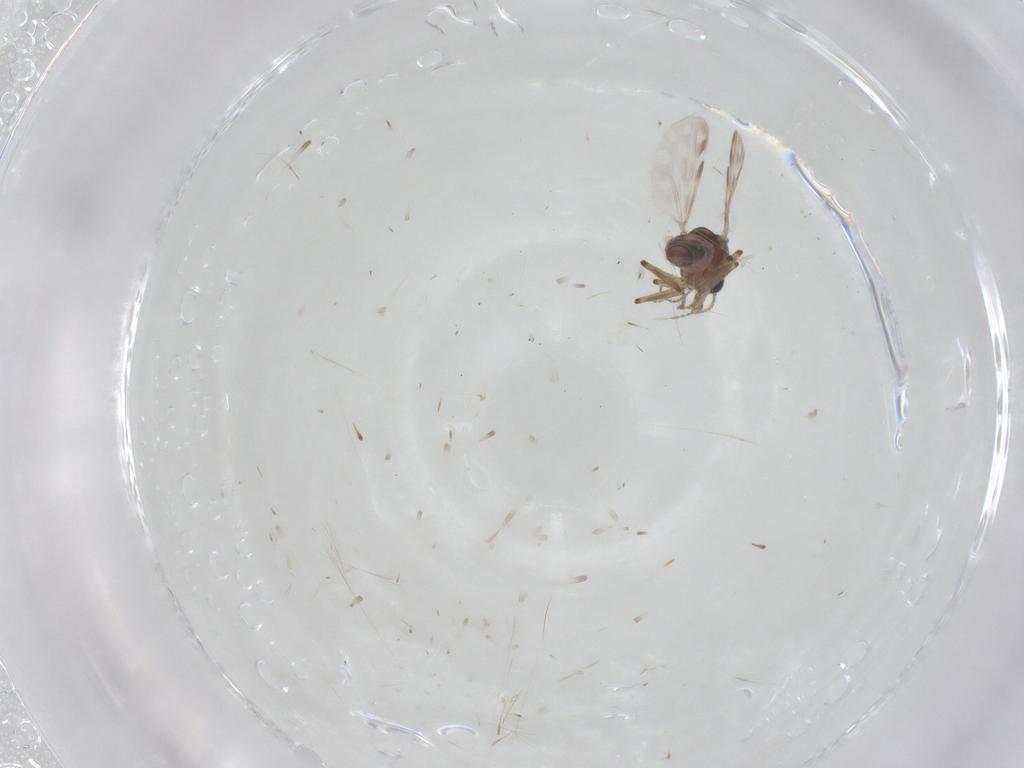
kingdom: Animalia
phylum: Arthropoda
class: Insecta
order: Diptera
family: Ceratopogonidae
